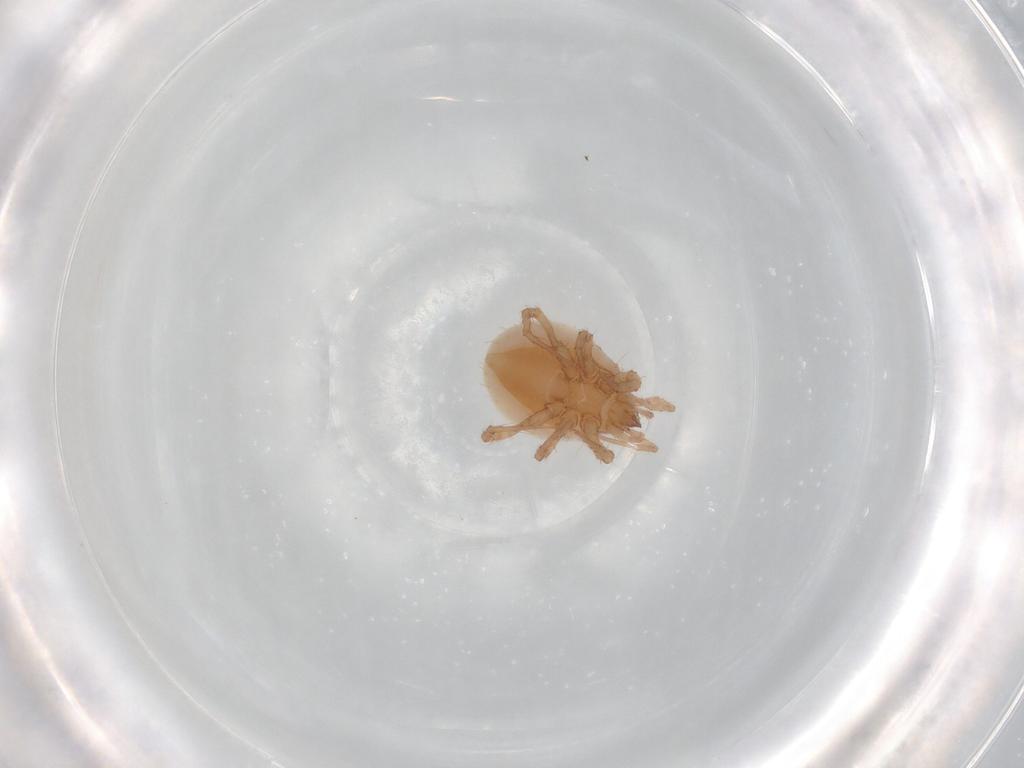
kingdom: Animalia
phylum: Arthropoda
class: Arachnida
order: Mesostigmata
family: Parasitidae
